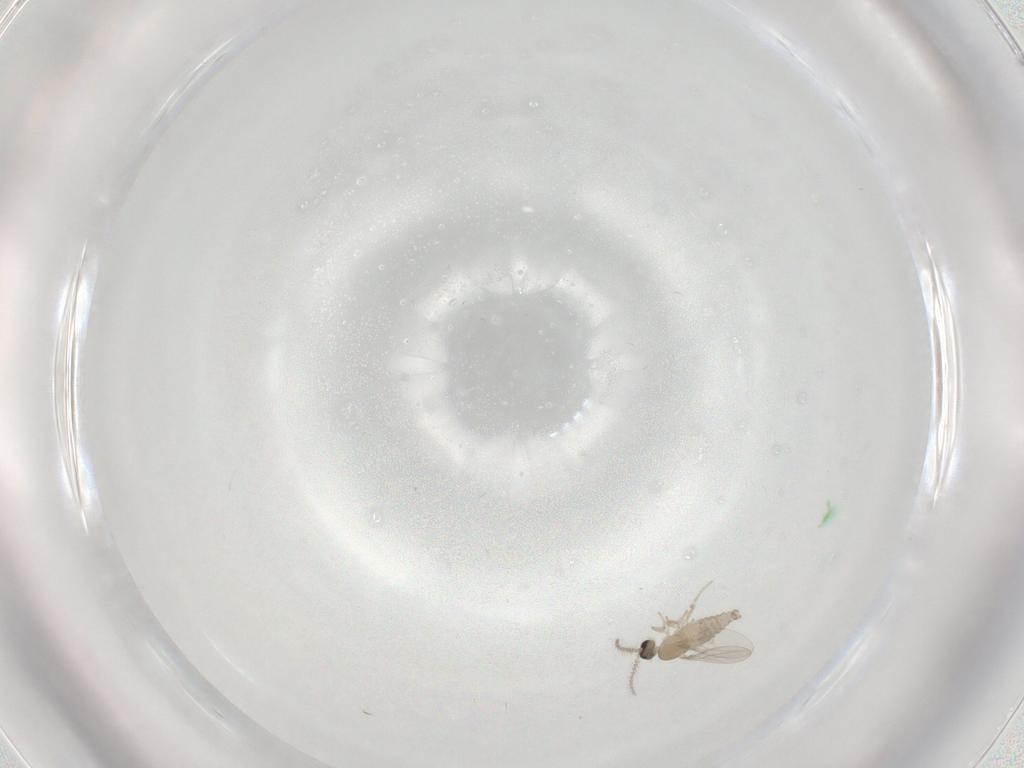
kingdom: Animalia
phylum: Arthropoda
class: Insecta
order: Diptera
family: Cecidomyiidae
